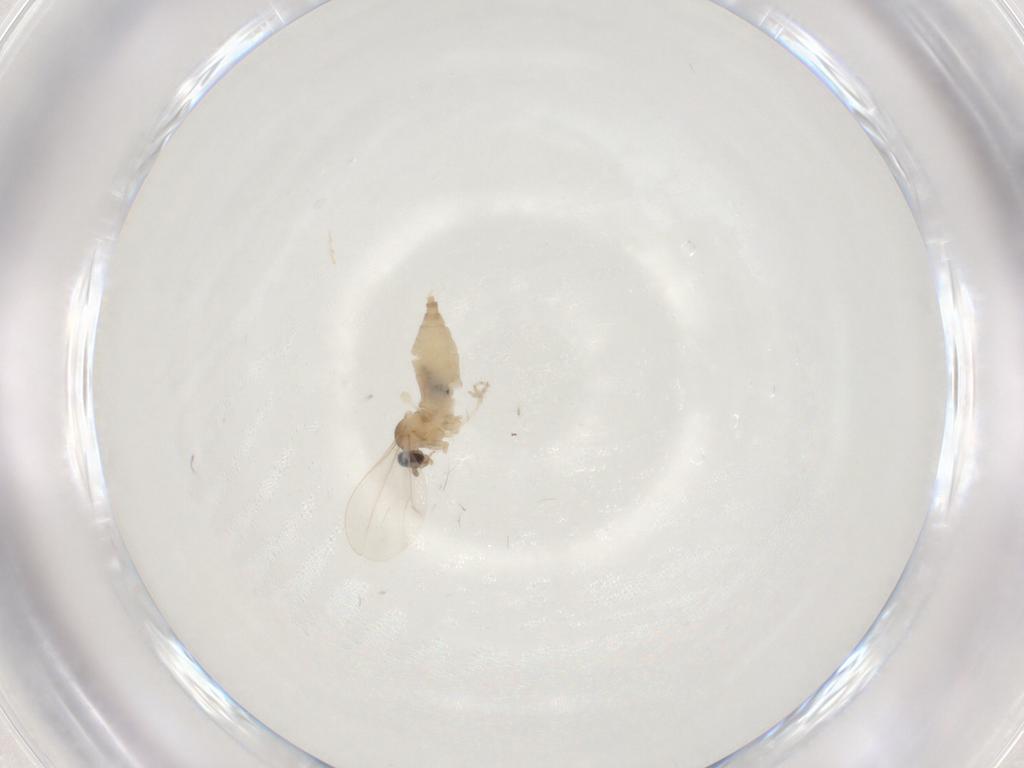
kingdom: Animalia
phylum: Arthropoda
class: Insecta
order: Diptera
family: Cecidomyiidae
